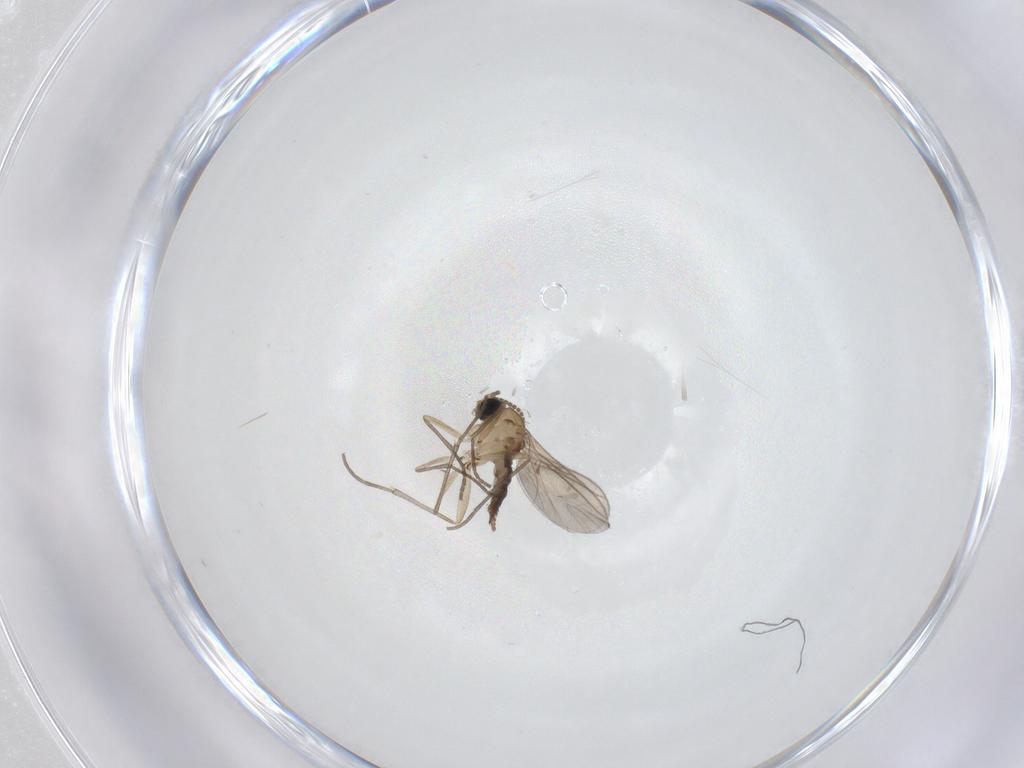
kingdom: Animalia
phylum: Arthropoda
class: Insecta
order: Diptera
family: Sciaridae
